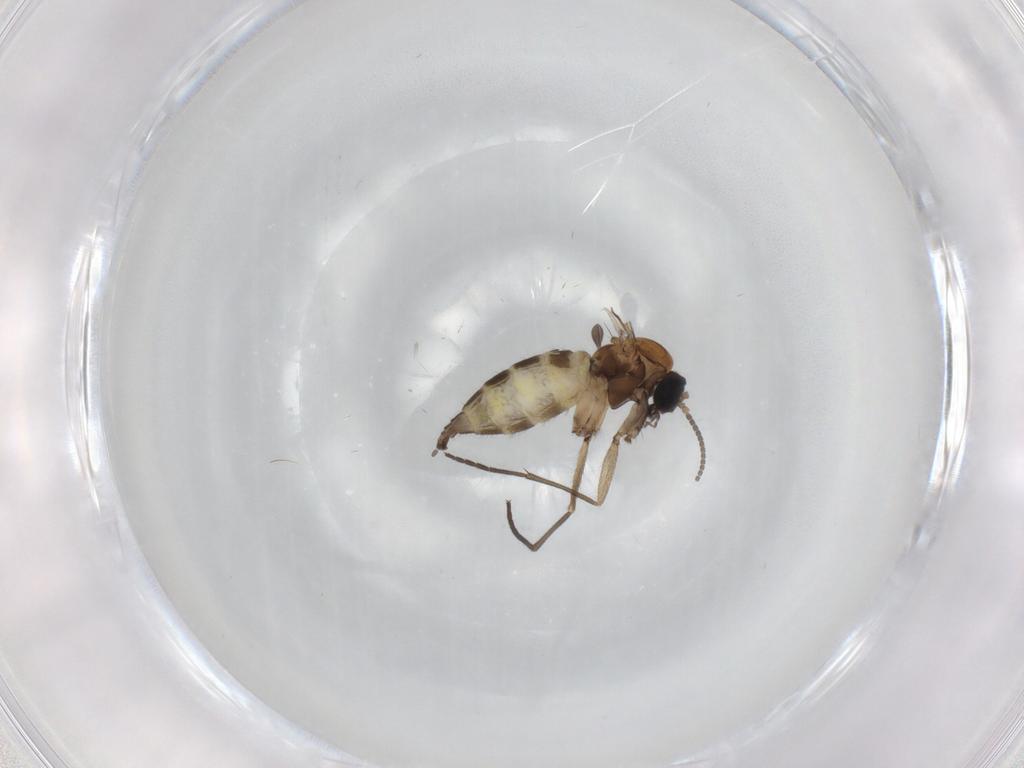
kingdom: Animalia
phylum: Arthropoda
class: Insecta
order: Diptera
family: Sciaridae
